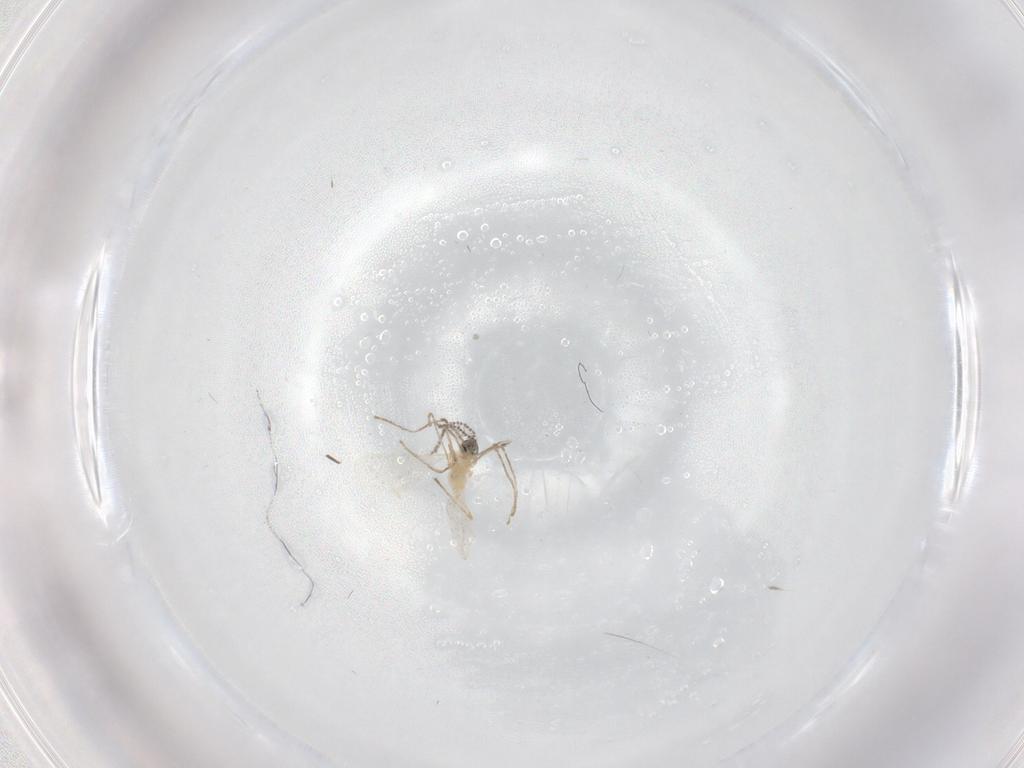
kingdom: Animalia
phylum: Arthropoda
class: Insecta
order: Diptera
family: Cecidomyiidae
